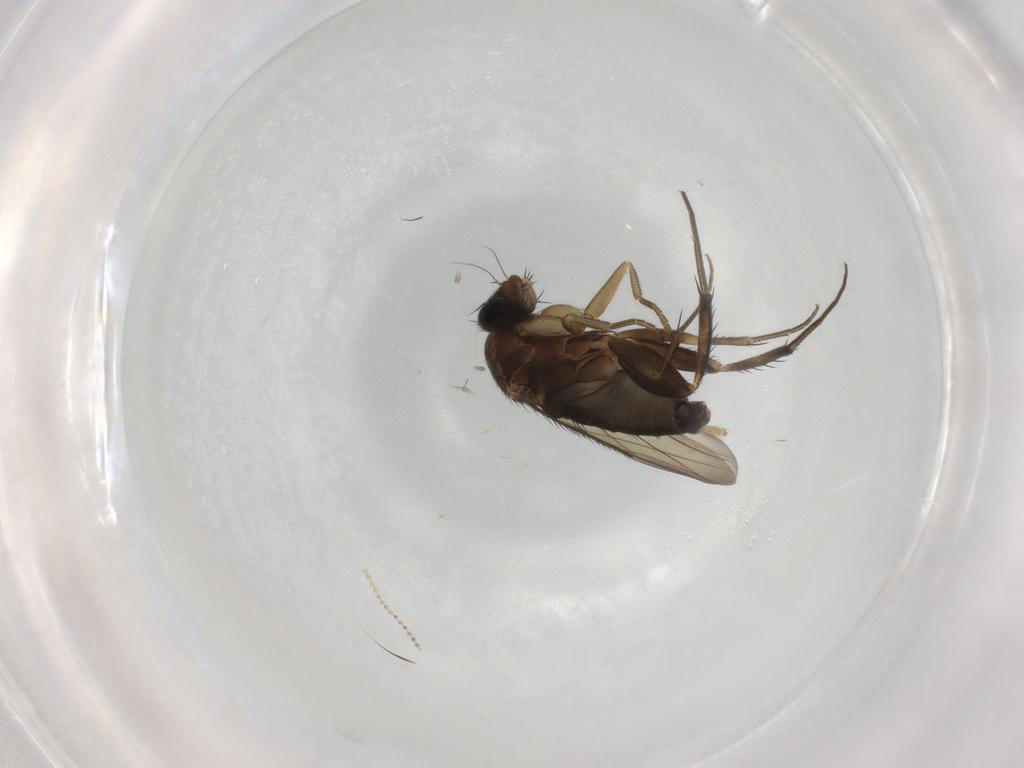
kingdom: Animalia
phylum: Arthropoda
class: Insecta
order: Diptera
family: Phoridae
